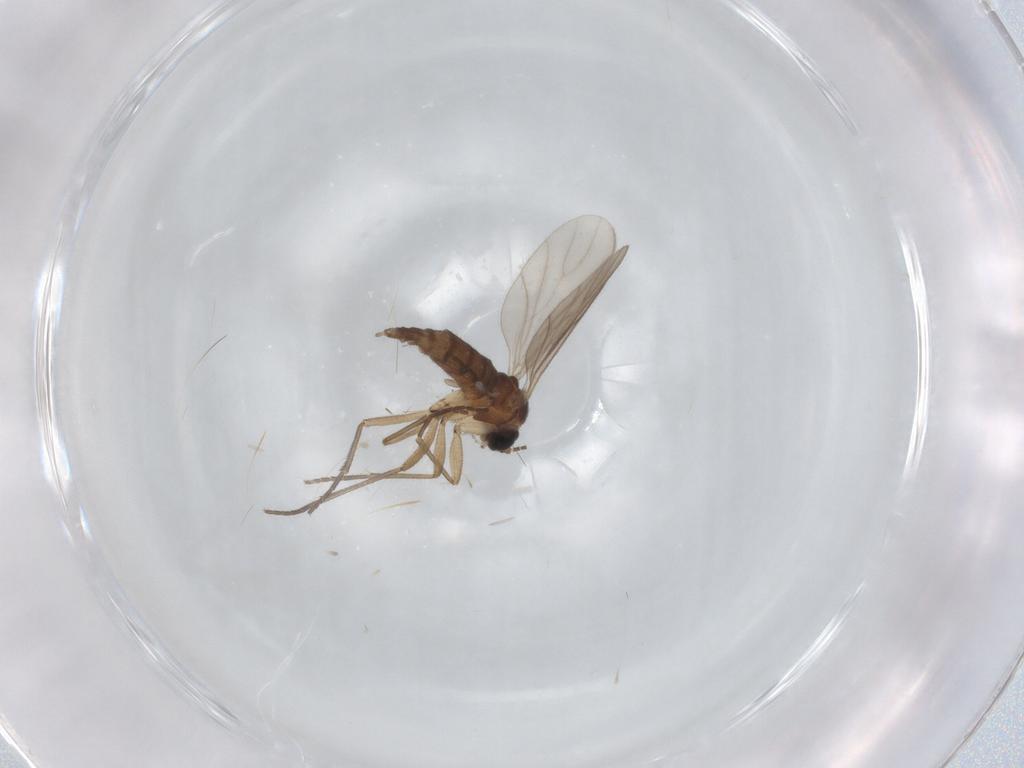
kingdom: Animalia
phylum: Arthropoda
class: Insecta
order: Diptera
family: Sciaridae
